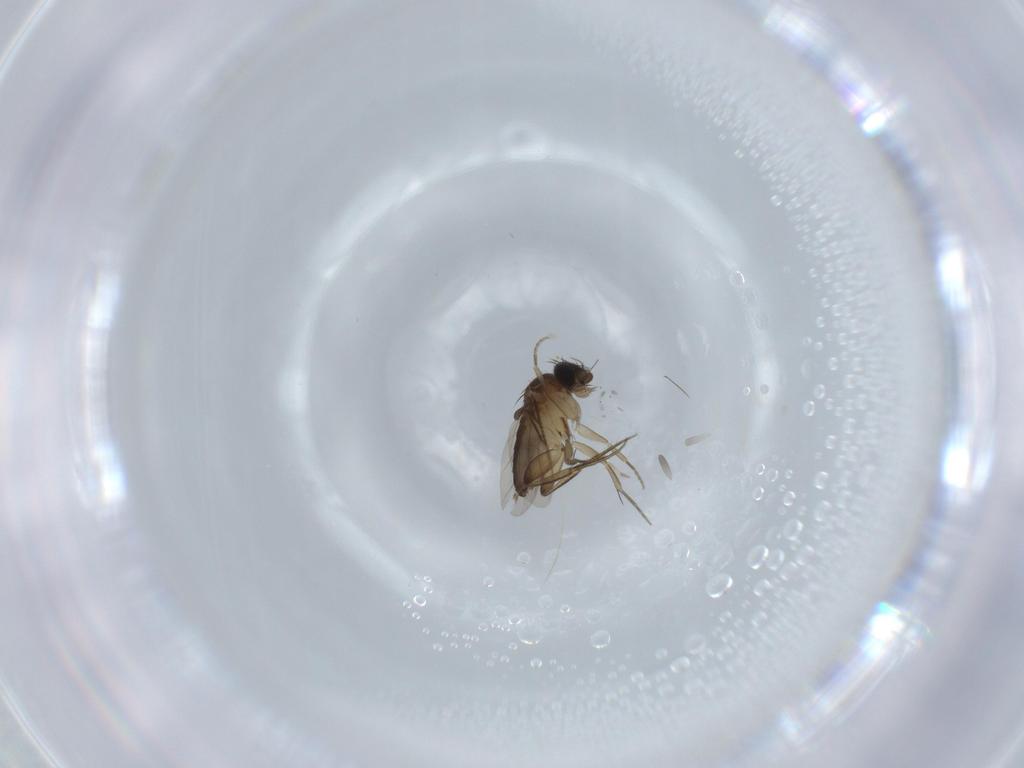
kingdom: Animalia
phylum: Arthropoda
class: Insecta
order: Diptera
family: Phoridae
